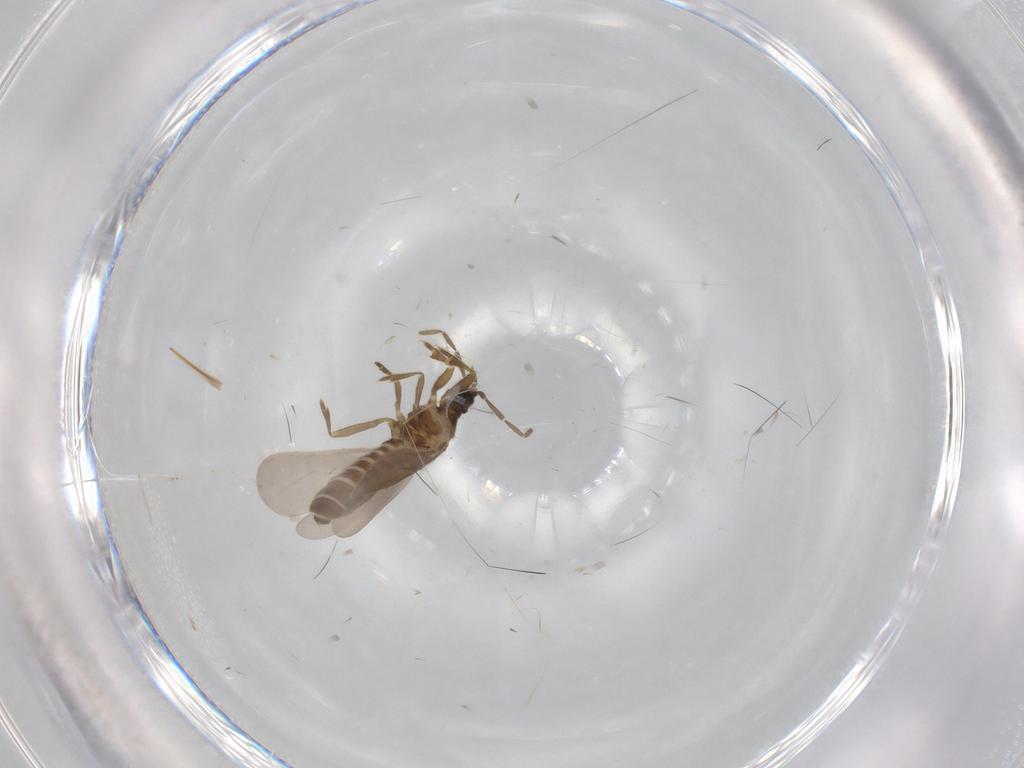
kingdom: Animalia
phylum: Arthropoda
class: Insecta
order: Hemiptera
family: Enicocephalidae
